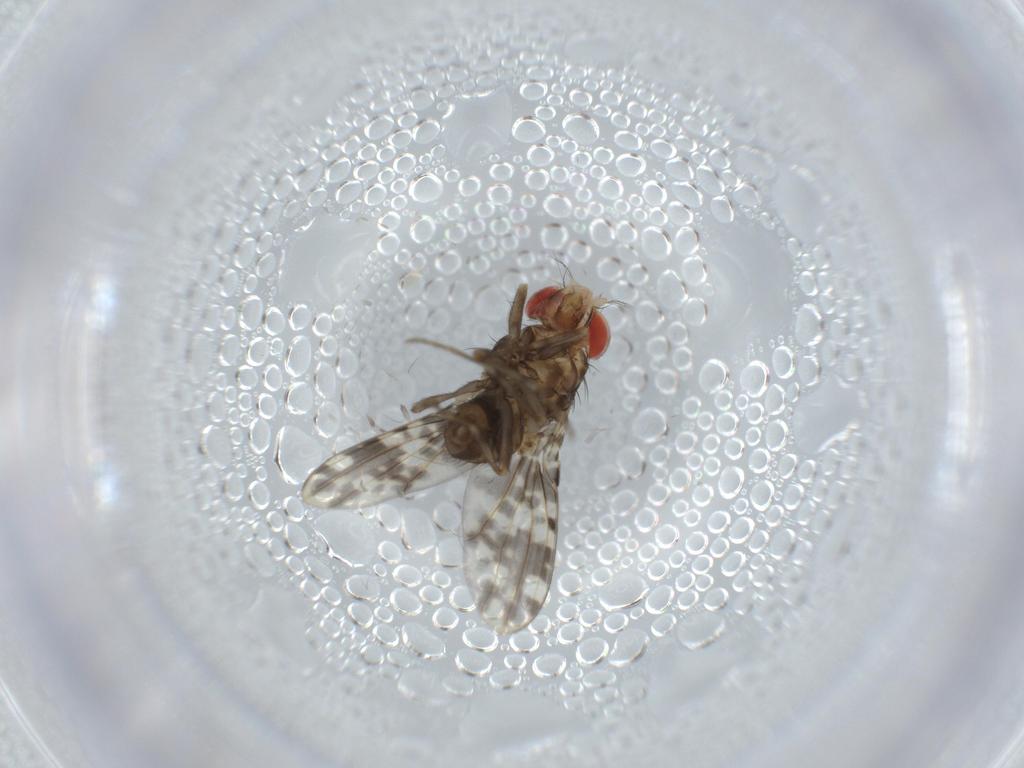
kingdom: Animalia
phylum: Arthropoda
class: Insecta
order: Diptera
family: Drosophilidae
